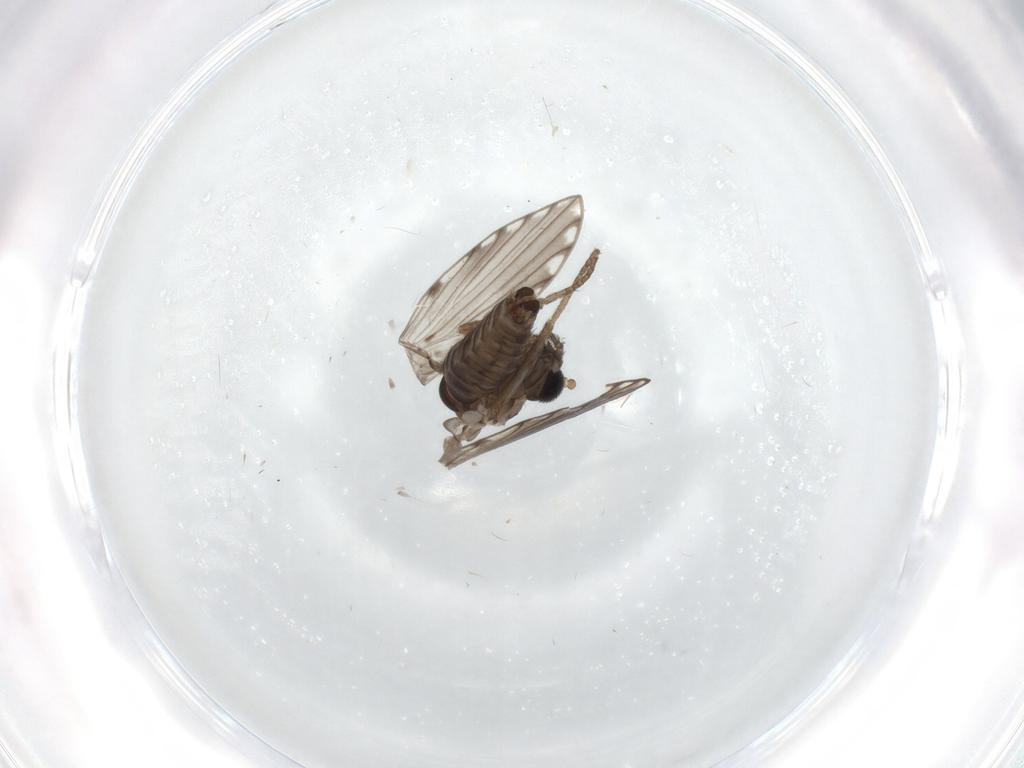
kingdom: Animalia
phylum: Arthropoda
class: Insecta
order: Diptera
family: Psychodidae
